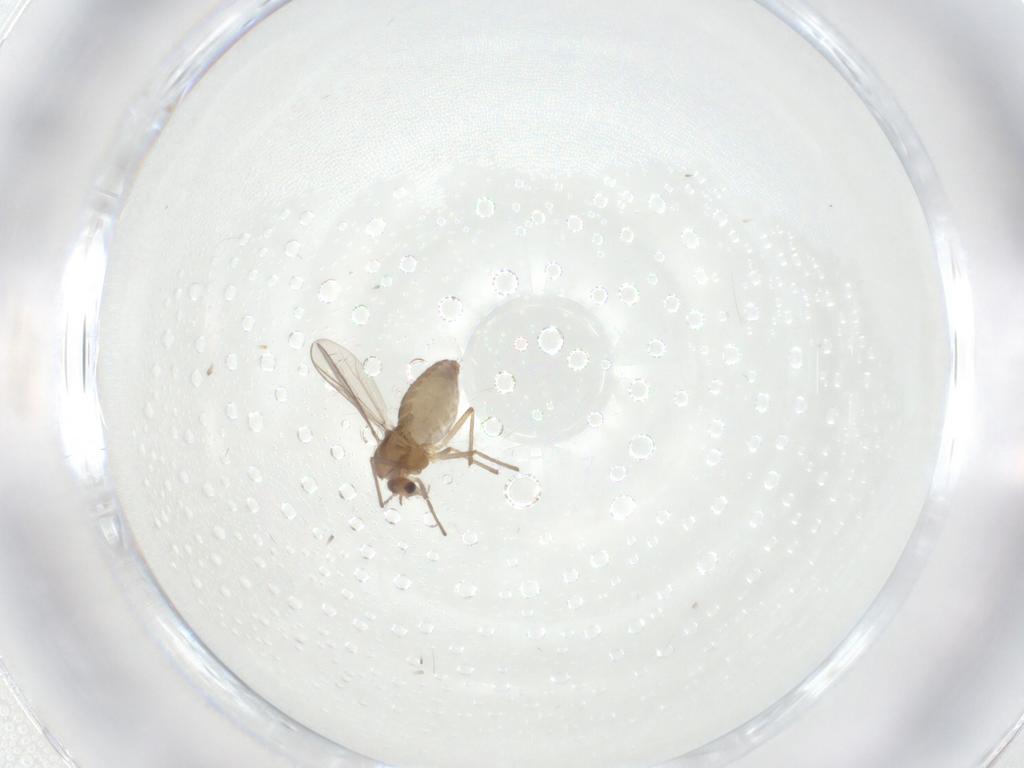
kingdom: Animalia
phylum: Arthropoda
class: Insecta
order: Diptera
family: Chironomidae
